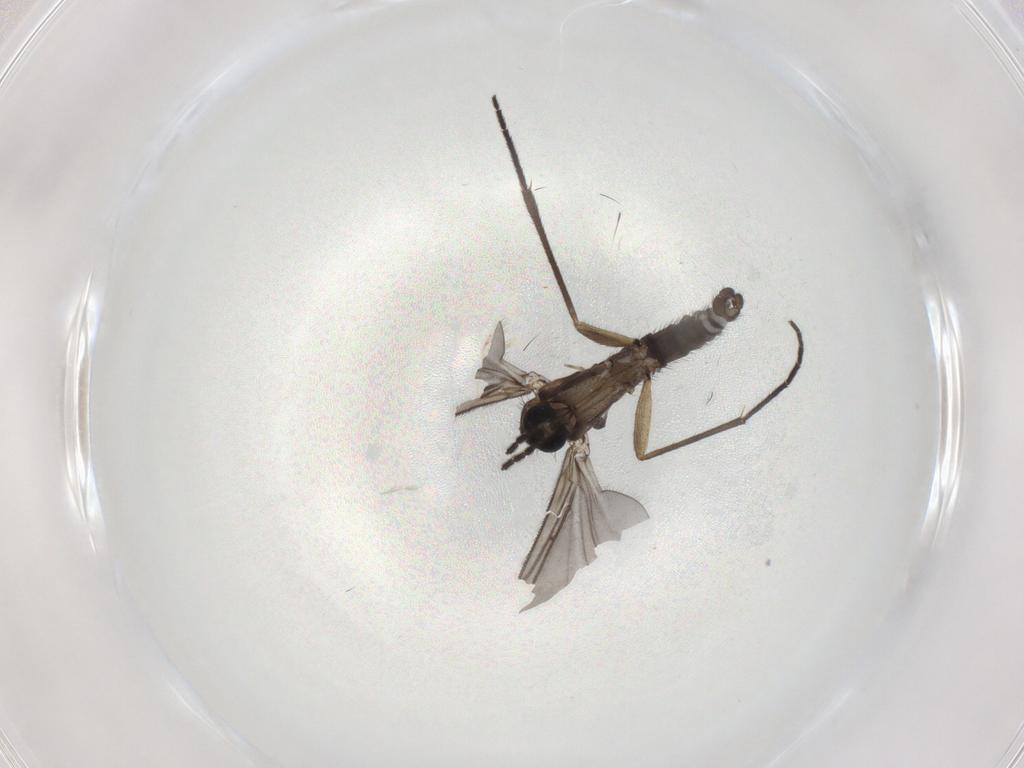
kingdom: Animalia
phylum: Arthropoda
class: Insecta
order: Diptera
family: Sciaridae
